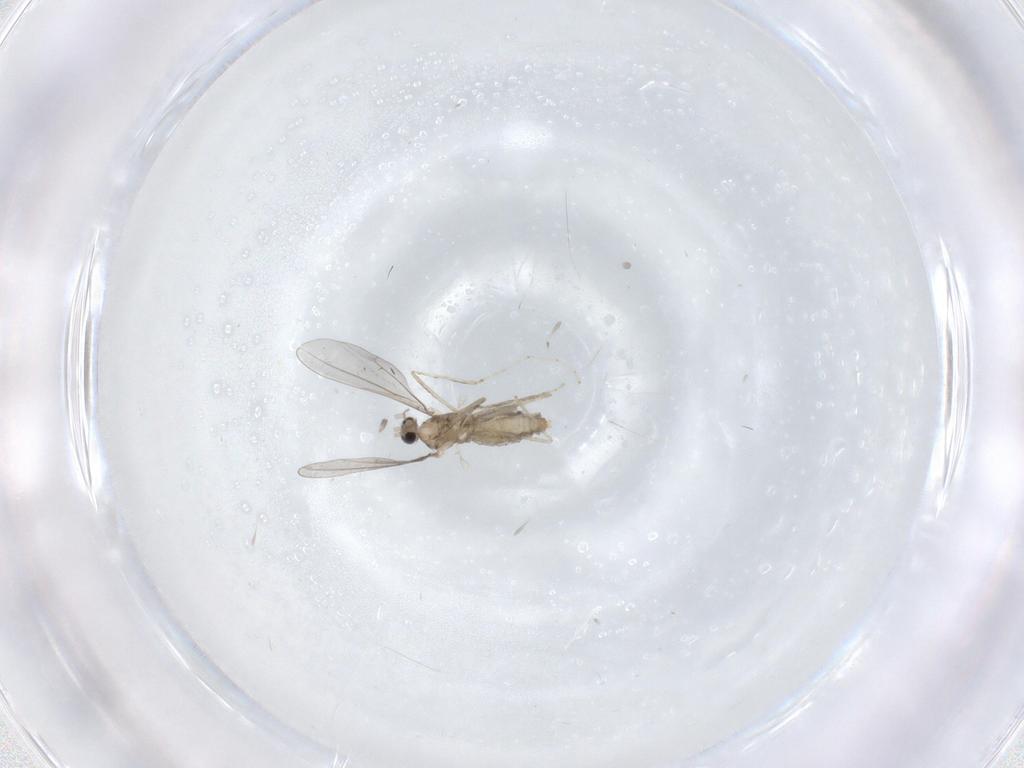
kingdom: Animalia
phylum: Arthropoda
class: Insecta
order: Diptera
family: Cecidomyiidae
